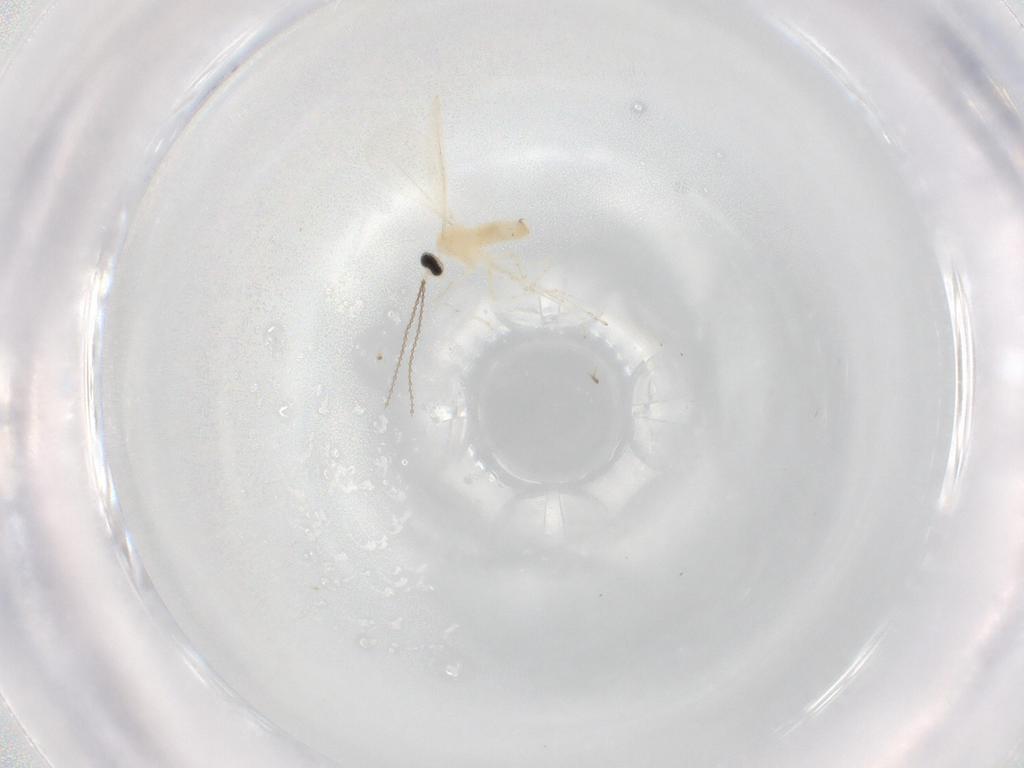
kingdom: Animalia
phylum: Arthropoda
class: Insecta
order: Diptera
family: Cecidomyiidae
